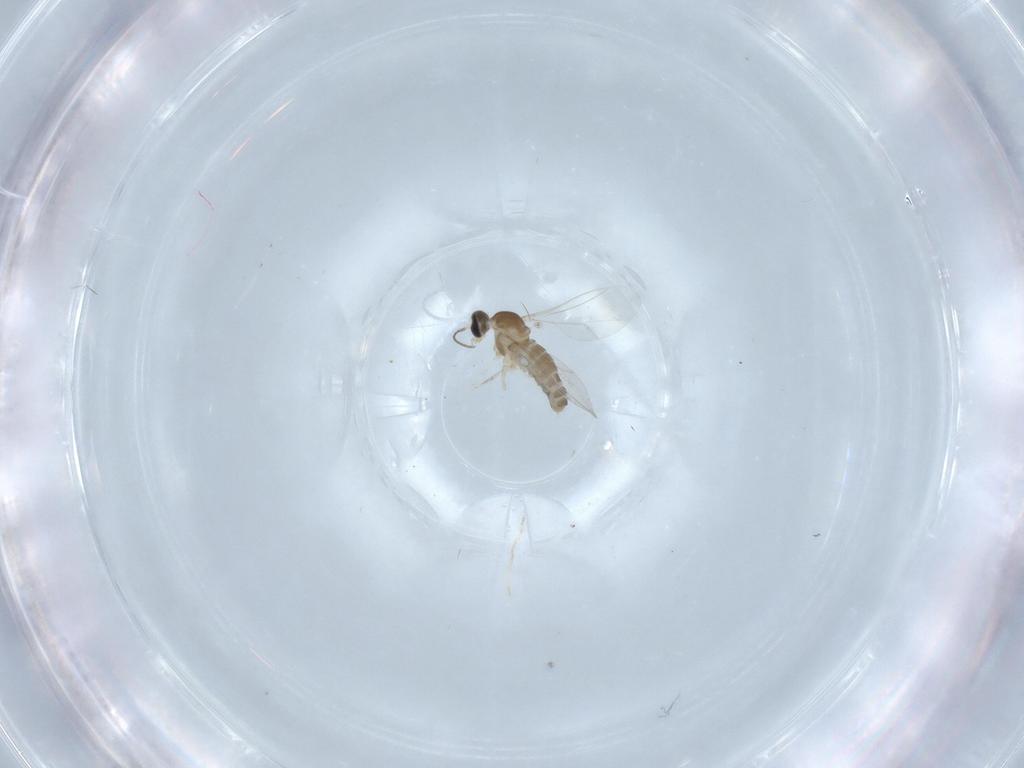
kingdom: Animalia
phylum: Arthropoda
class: Insecta
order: Diptera
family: Cecidomyiidae
